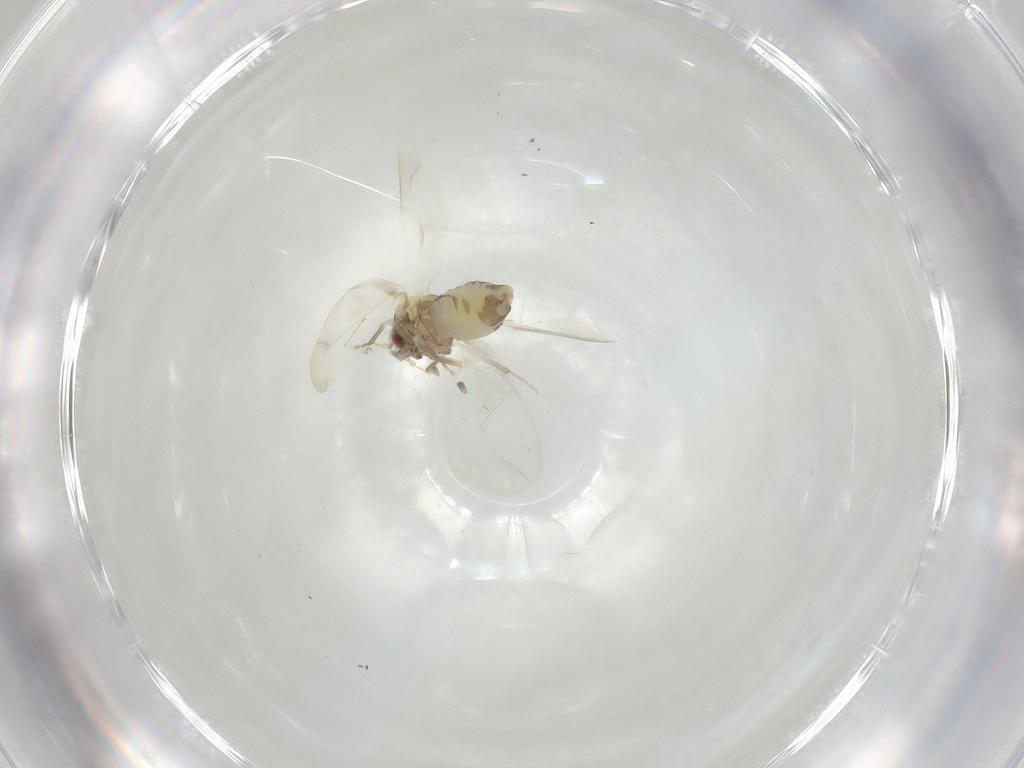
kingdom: Animalia
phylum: Arthropoda
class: Insecta
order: Hemiptera
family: Aleyrodidae
